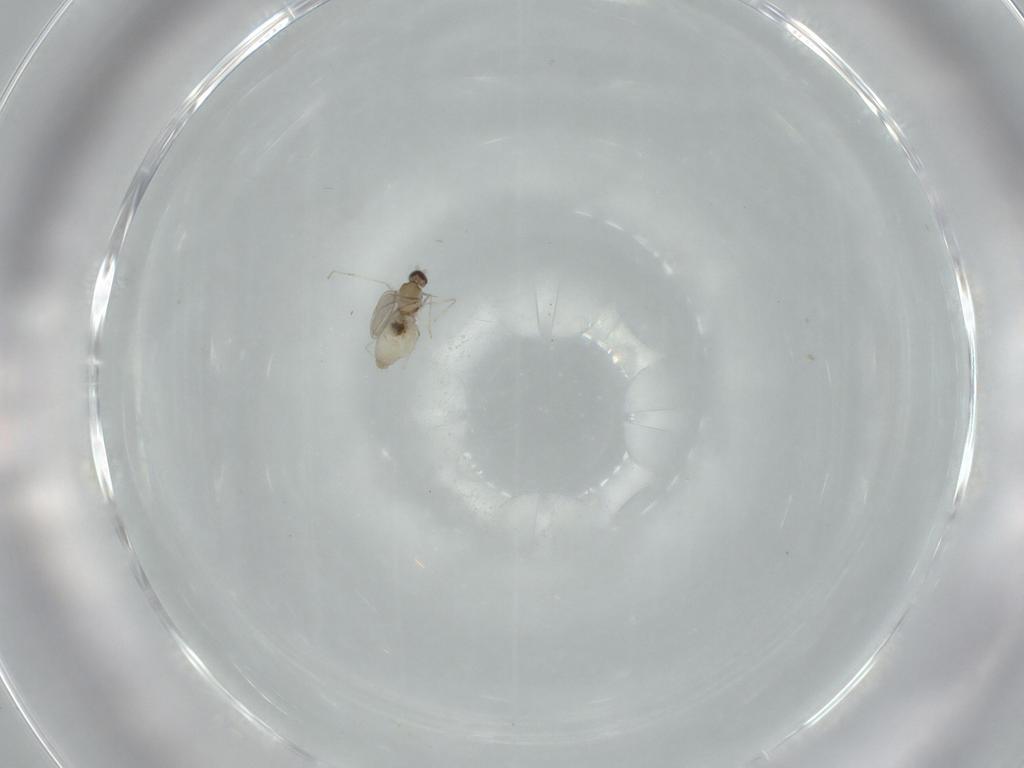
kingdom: Animalia
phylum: Arthropoda
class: Insecta
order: Diptera
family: Cecidomyiidae
